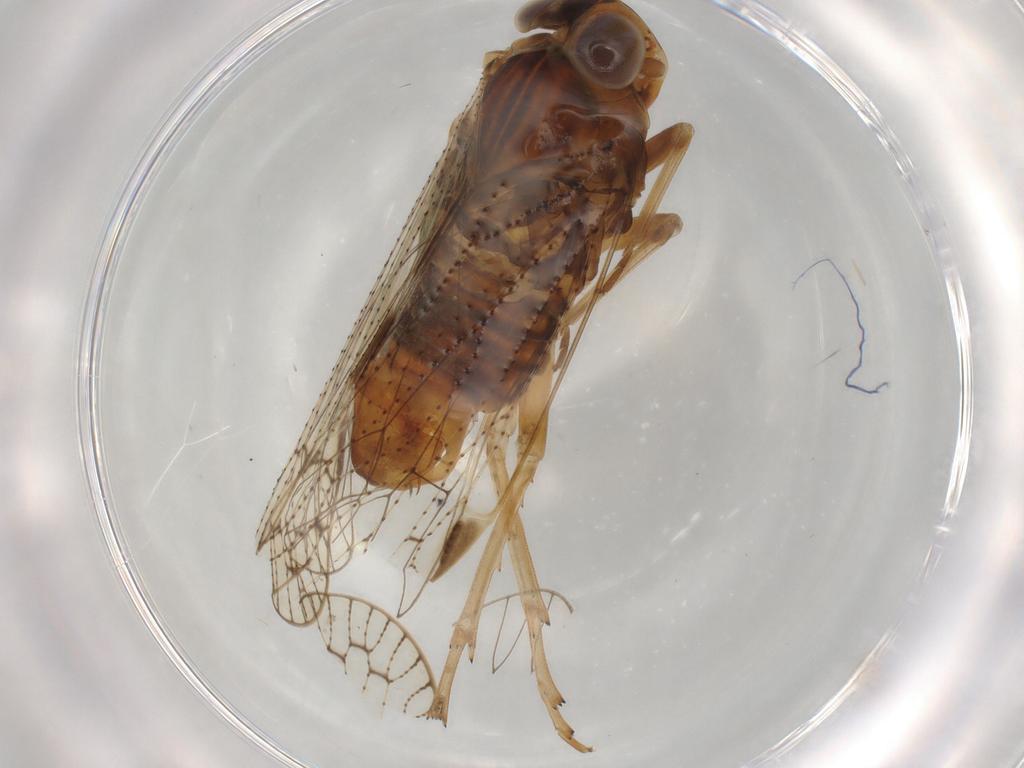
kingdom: Animalia
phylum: Arthropoda
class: Insecta
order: Hemiptera
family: Cixiidae
